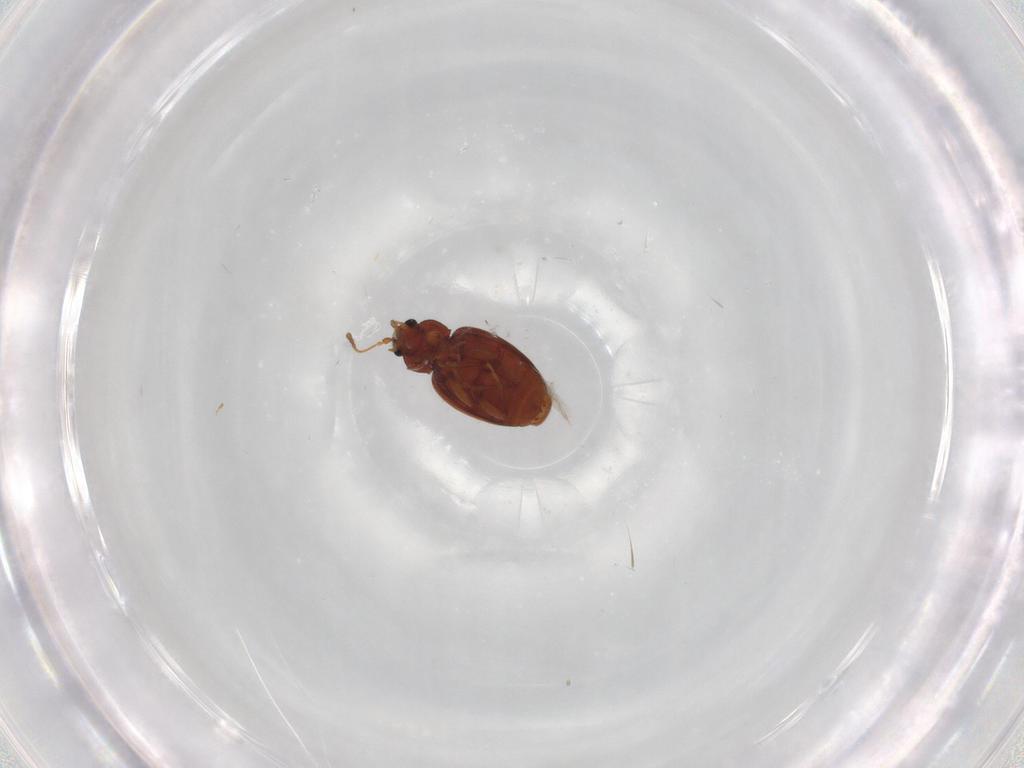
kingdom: Animalia
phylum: Arthropoda
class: Insecta
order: Coleoptera
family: Latridiidae
